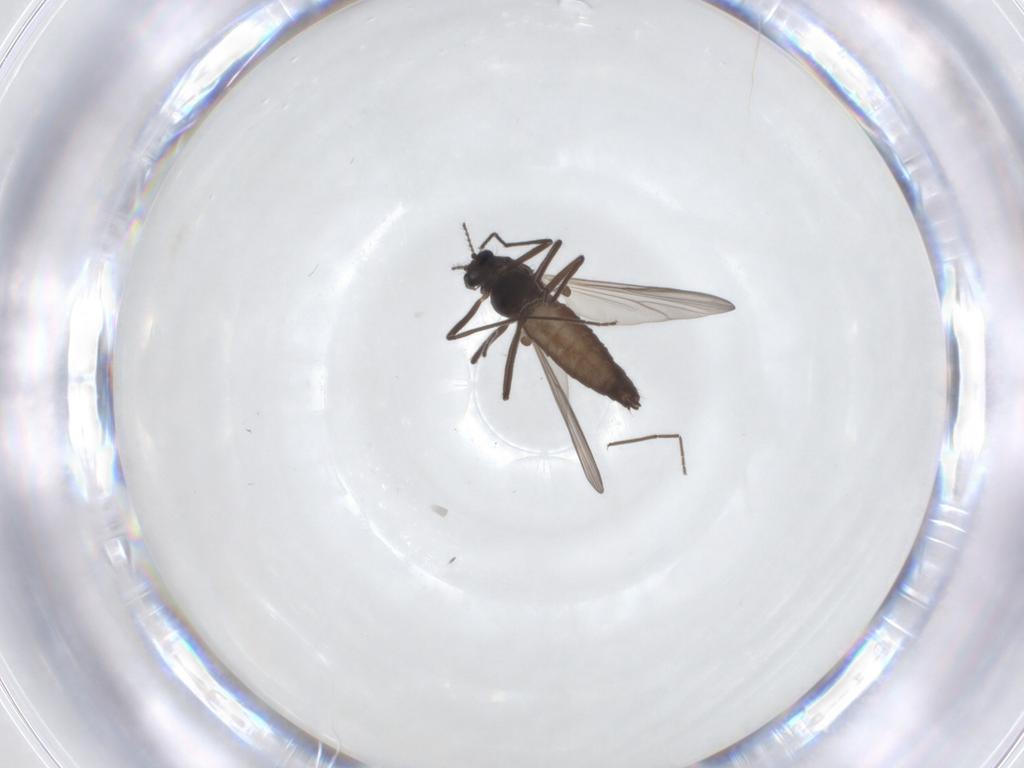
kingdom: Animalia
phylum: Arthropoda
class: Insecta
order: Diptera
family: Chironomidae
